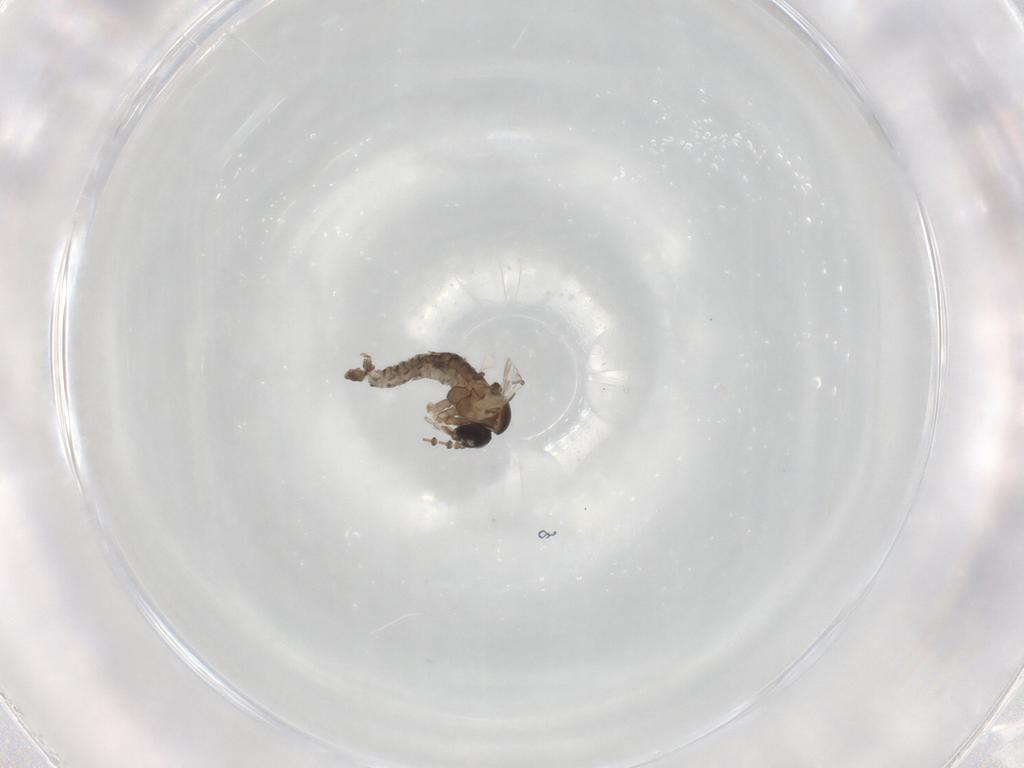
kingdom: Animalia
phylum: Arthropoda
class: Insecta
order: Diptera
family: Psychodidae
